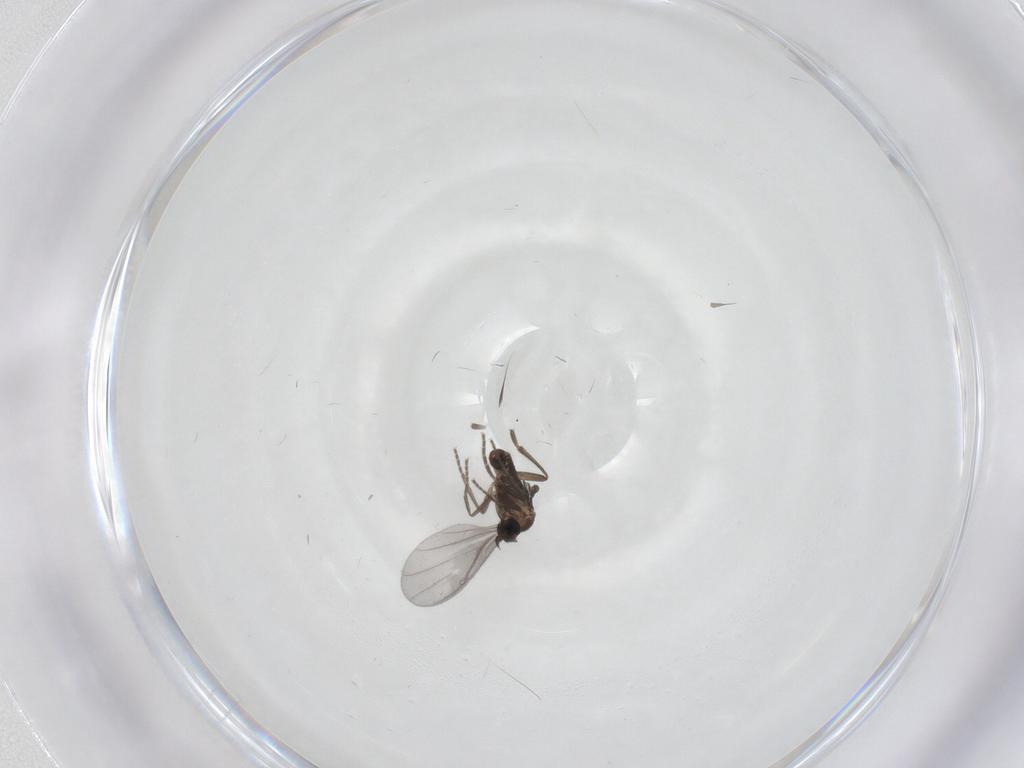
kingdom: Animalia
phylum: Arthropoda
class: Insecta
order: Diptera
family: Phoridae
